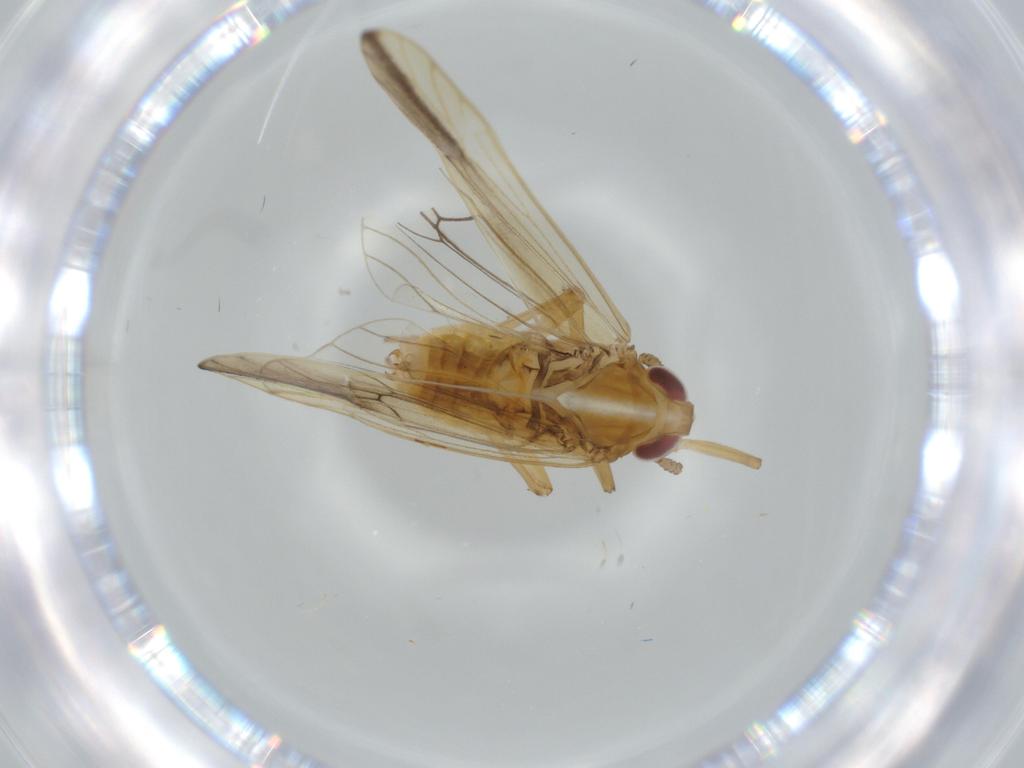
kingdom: Animalia
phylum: Arthropoda
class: Insecta
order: Hemiptera
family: Delphacidae
